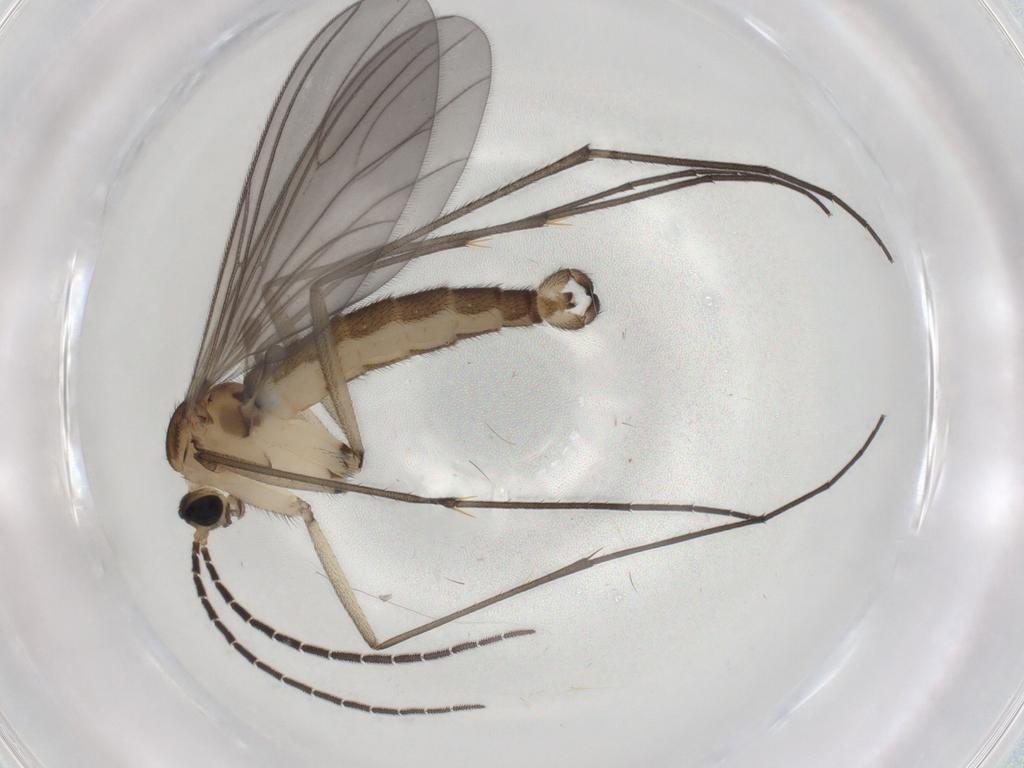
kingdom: Animalia
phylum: Arthropoda
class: Insecta
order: Diptera
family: Sciaridae
